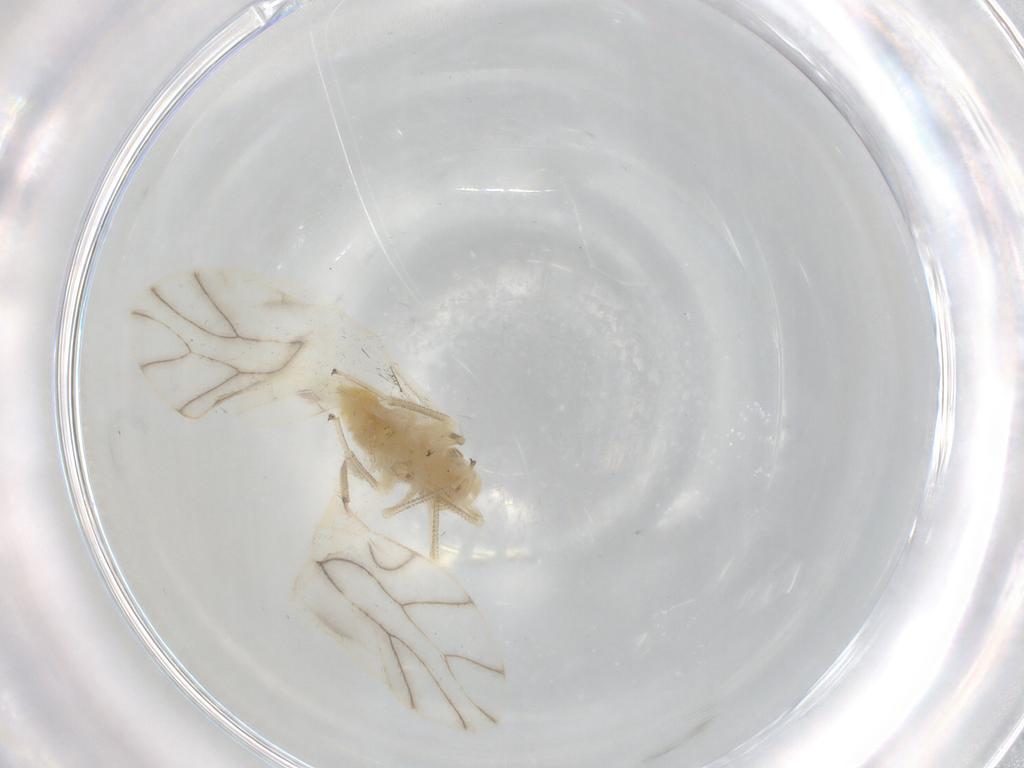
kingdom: Animalia
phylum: Arthropoda
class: Insecta
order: Psocodea
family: Caeciliusidae
